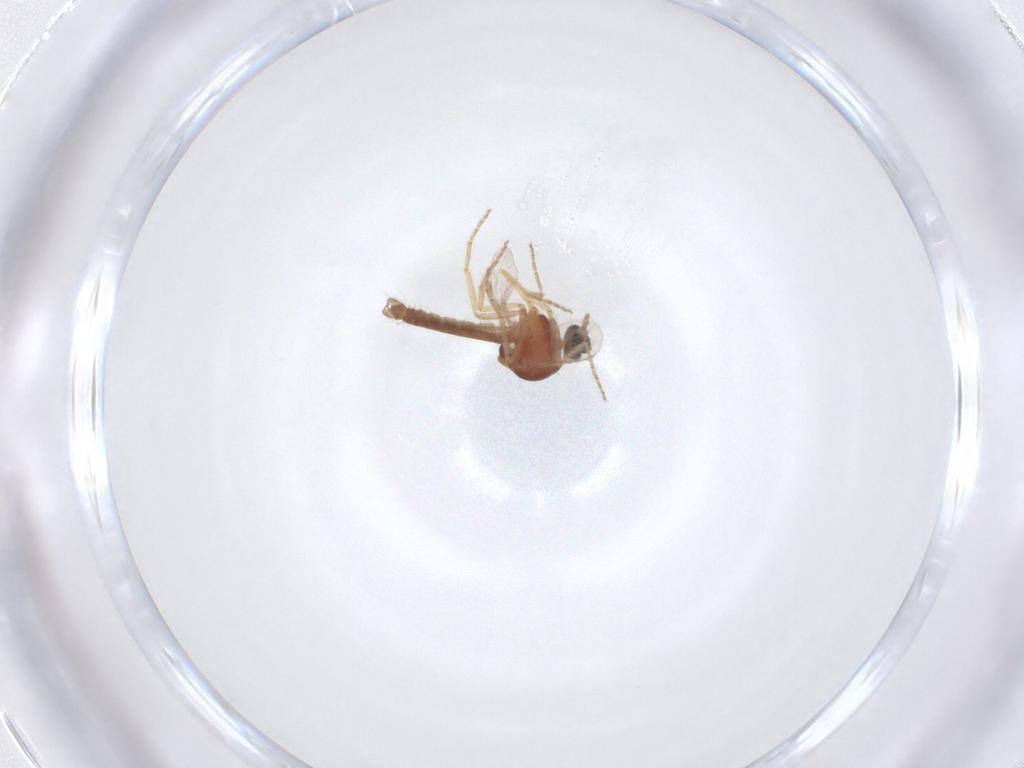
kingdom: Animalia
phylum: Arthropoda
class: Insecta
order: Diptera
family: Ceratopogonidae
